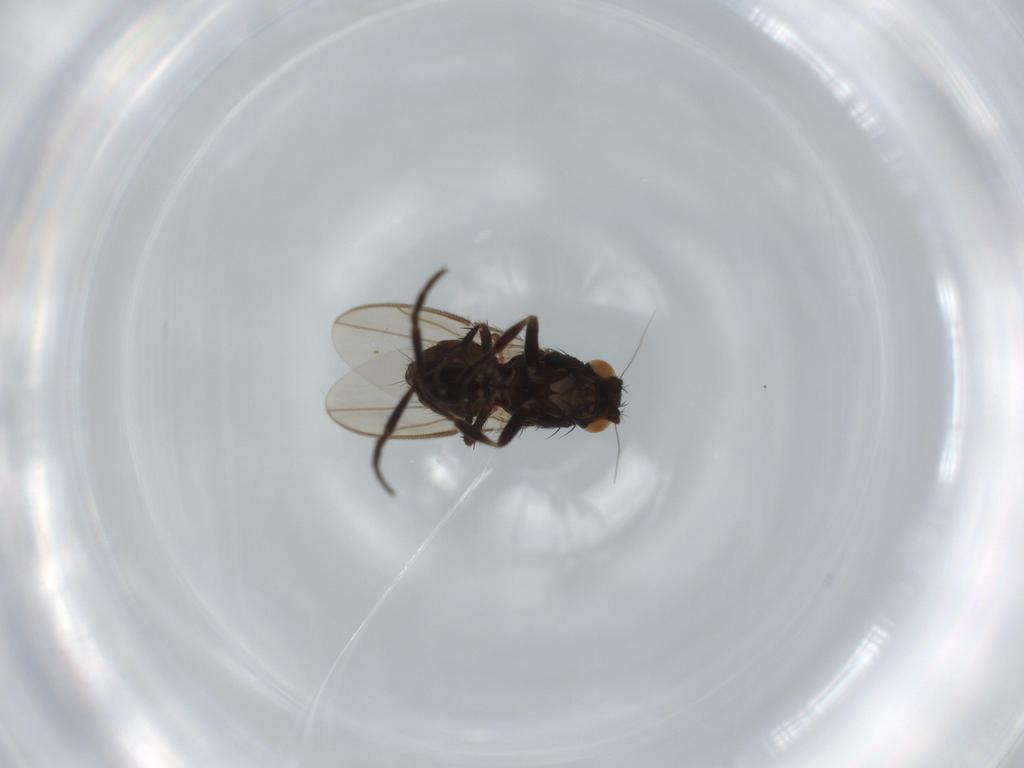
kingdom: Animalia
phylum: Arthropoda
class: Insecta
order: Diptera
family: Sphaeroceridae
